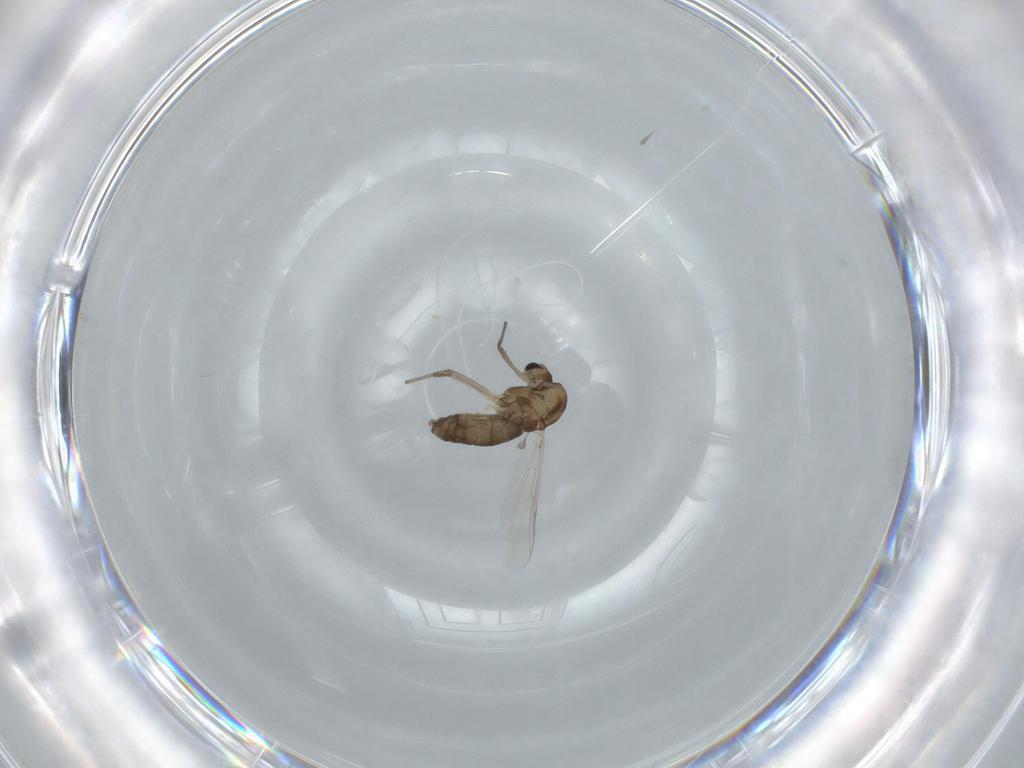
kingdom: Animalia
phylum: Arthropoda
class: Insecta
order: Diptera
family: Chironomidae
